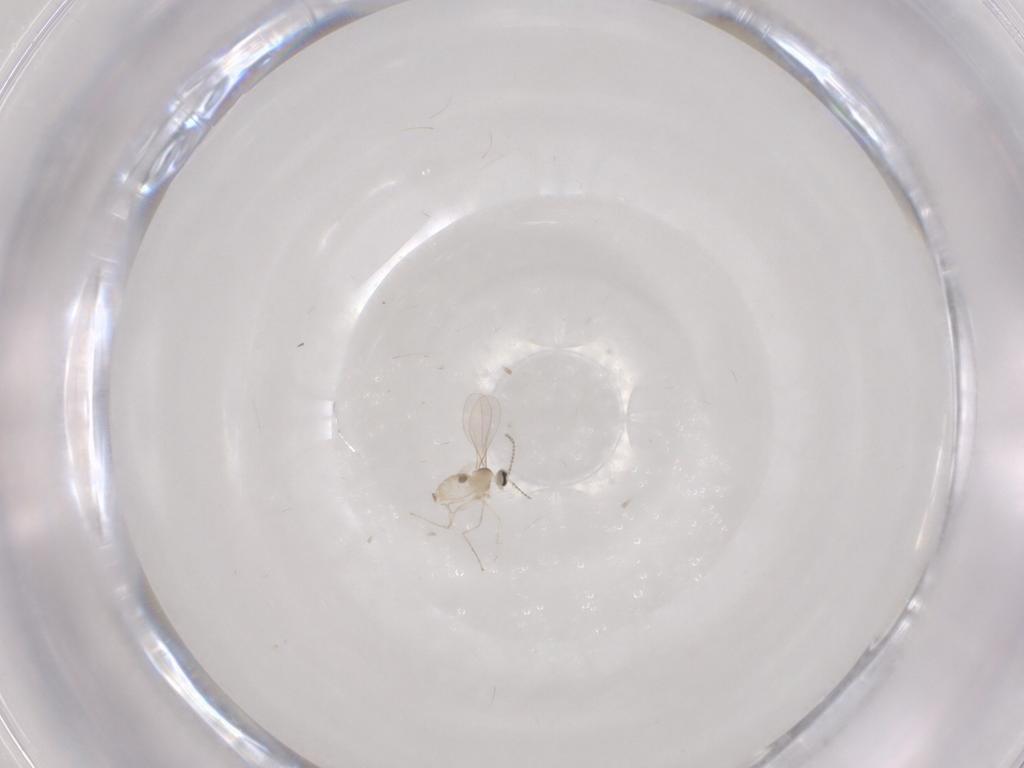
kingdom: Animalia
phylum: Arthropoda
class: Insecta
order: Diptera
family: Cecidomyiidae
